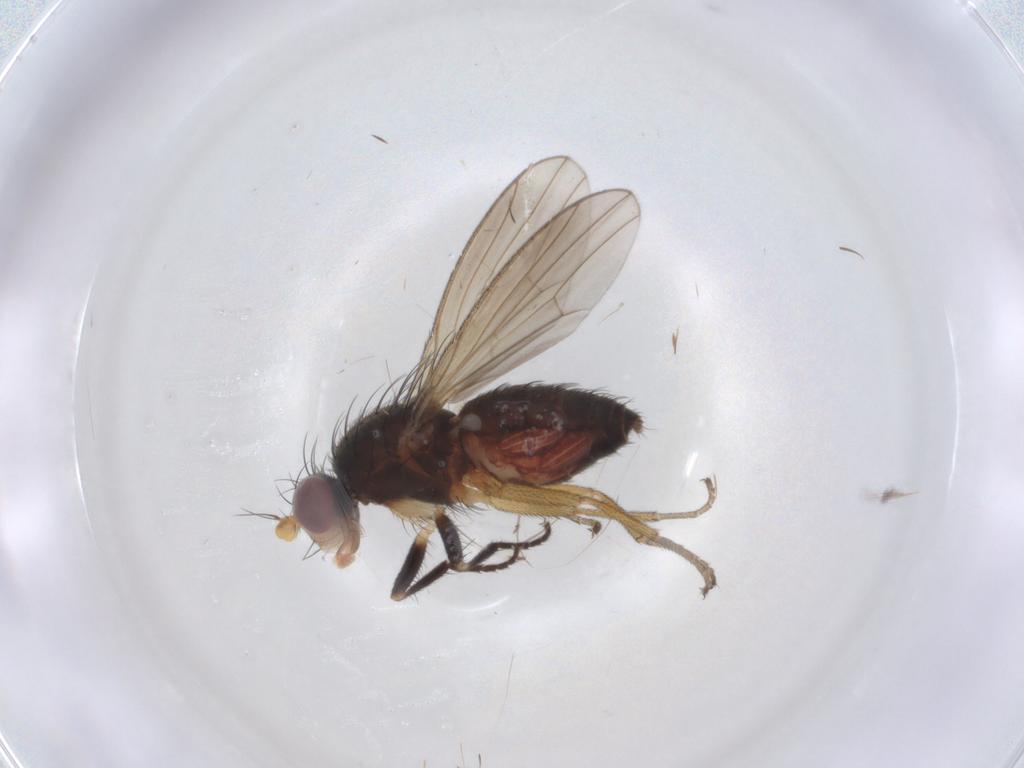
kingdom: Animalia
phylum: Arthropoda
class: Insecta
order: Diptera
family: Heleomyzidae
